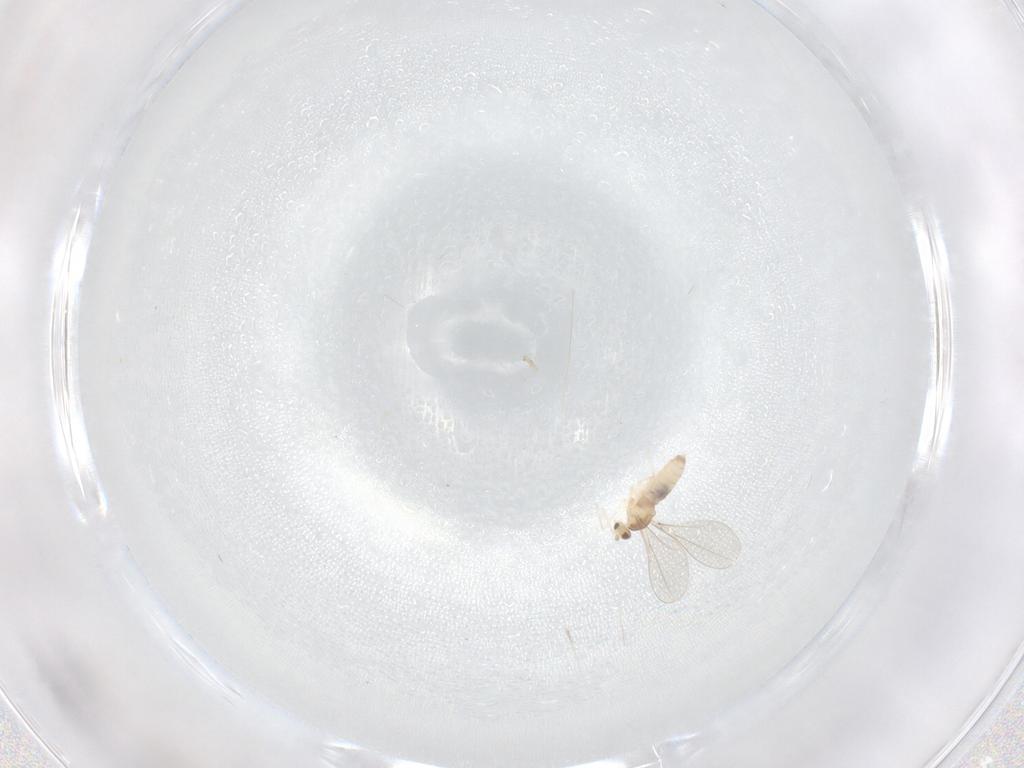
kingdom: Animalia
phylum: Arthropoda
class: Insecta
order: Diptera
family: Cecidomyiidae
